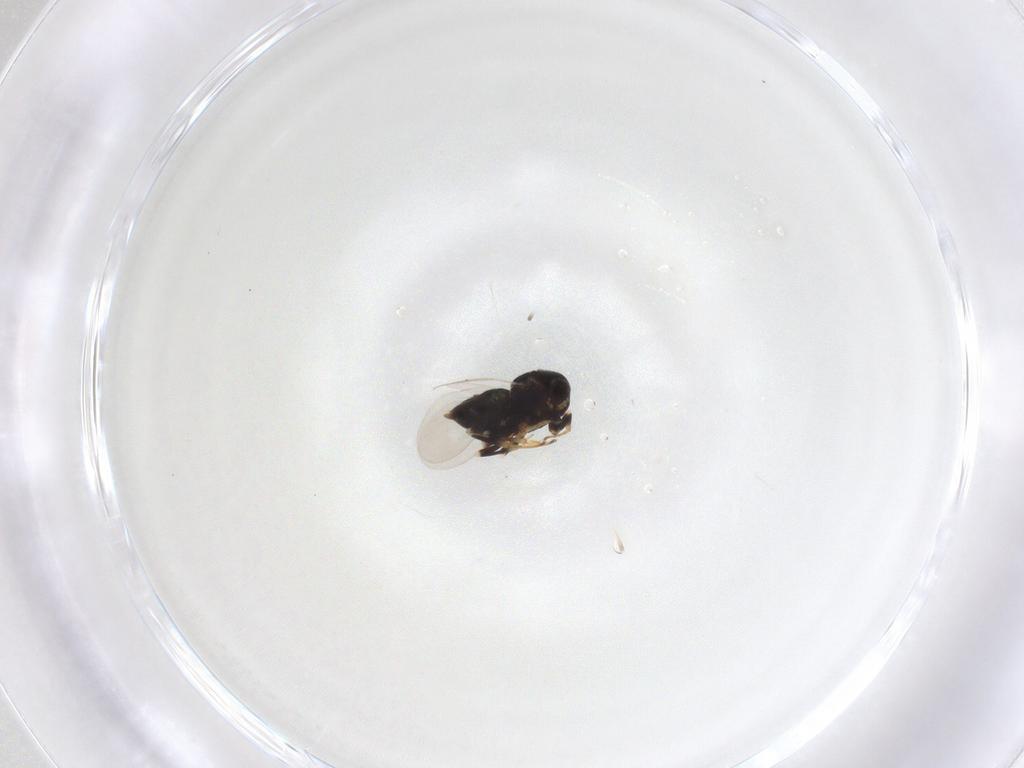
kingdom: Animalia
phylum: Arthropoda
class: Insecta
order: Hymenoptera
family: Encyrtidae
